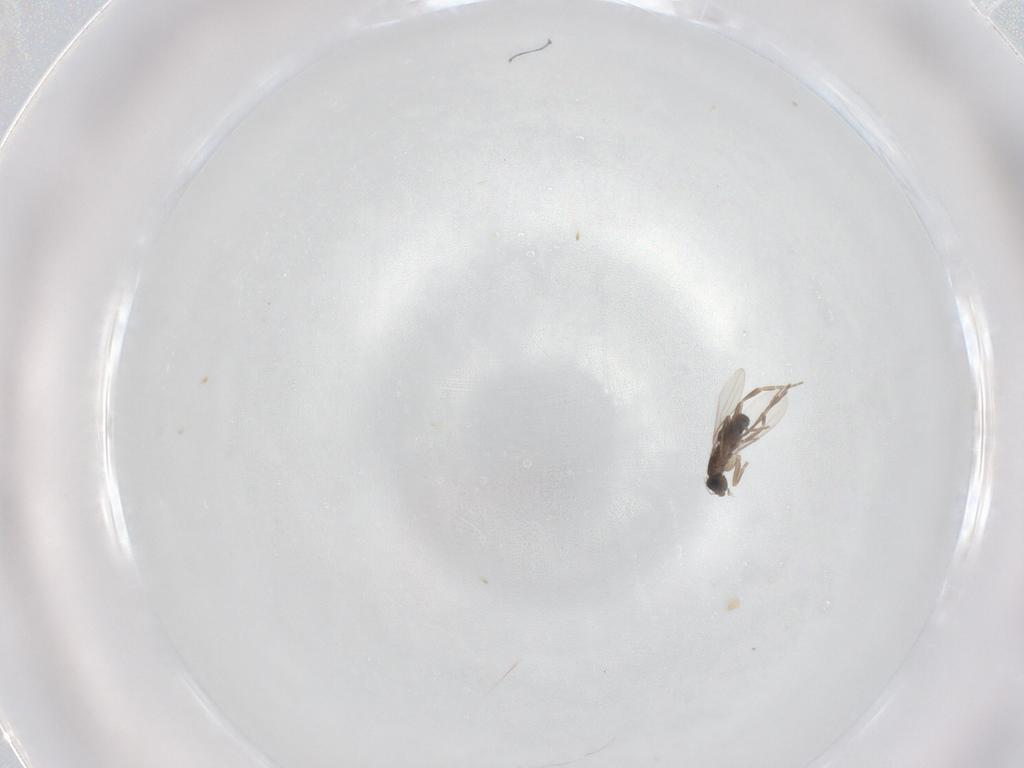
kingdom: Animalia
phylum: Arthropoda
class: Insecta
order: Diptera
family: Phoridae
